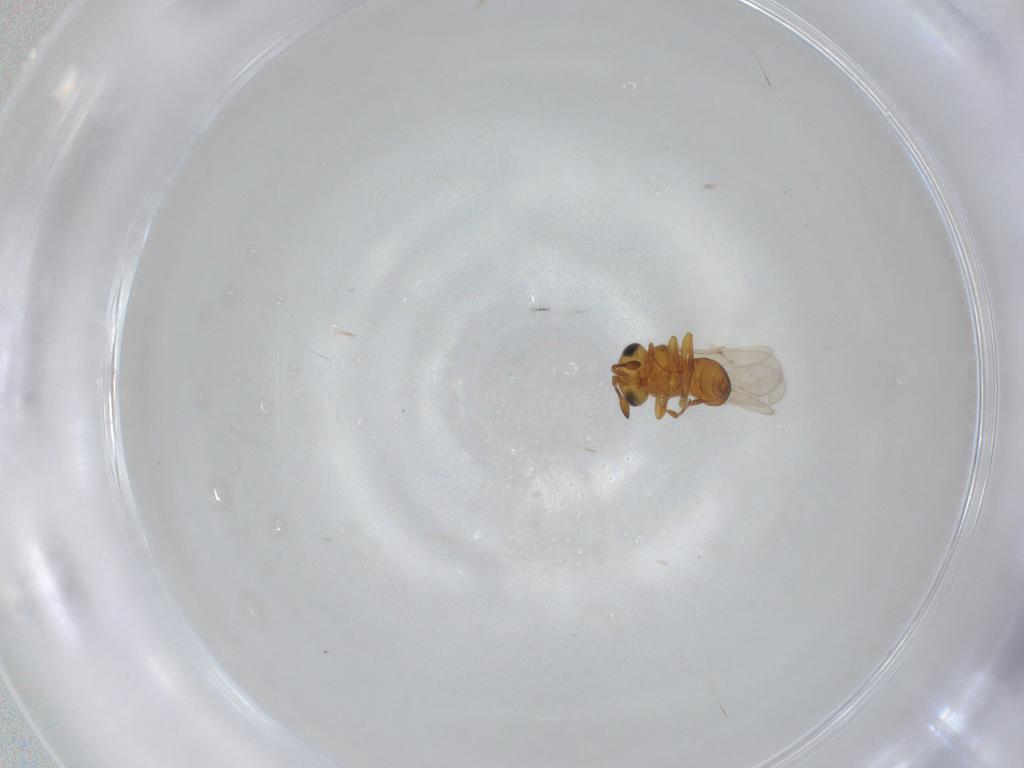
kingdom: Animalia
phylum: Arthropoda
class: Insecta
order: Hymenoptera
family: Scelionidae
